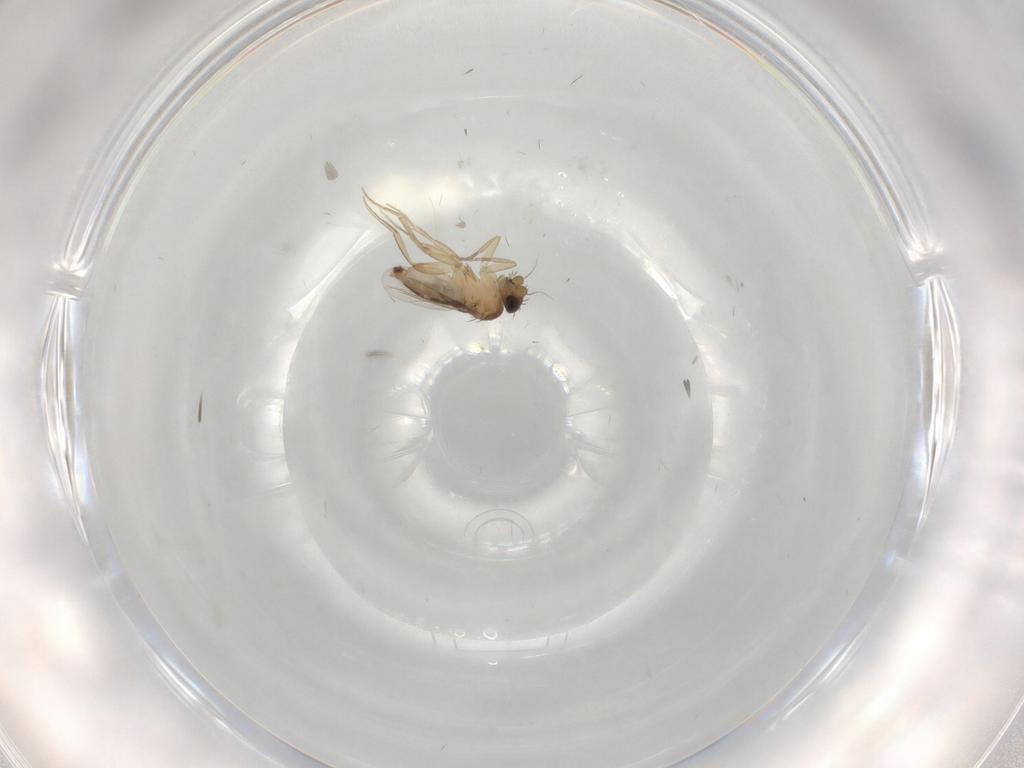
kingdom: Animalia
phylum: Arthropoda
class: Insecta
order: Diptera
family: Phoridae
